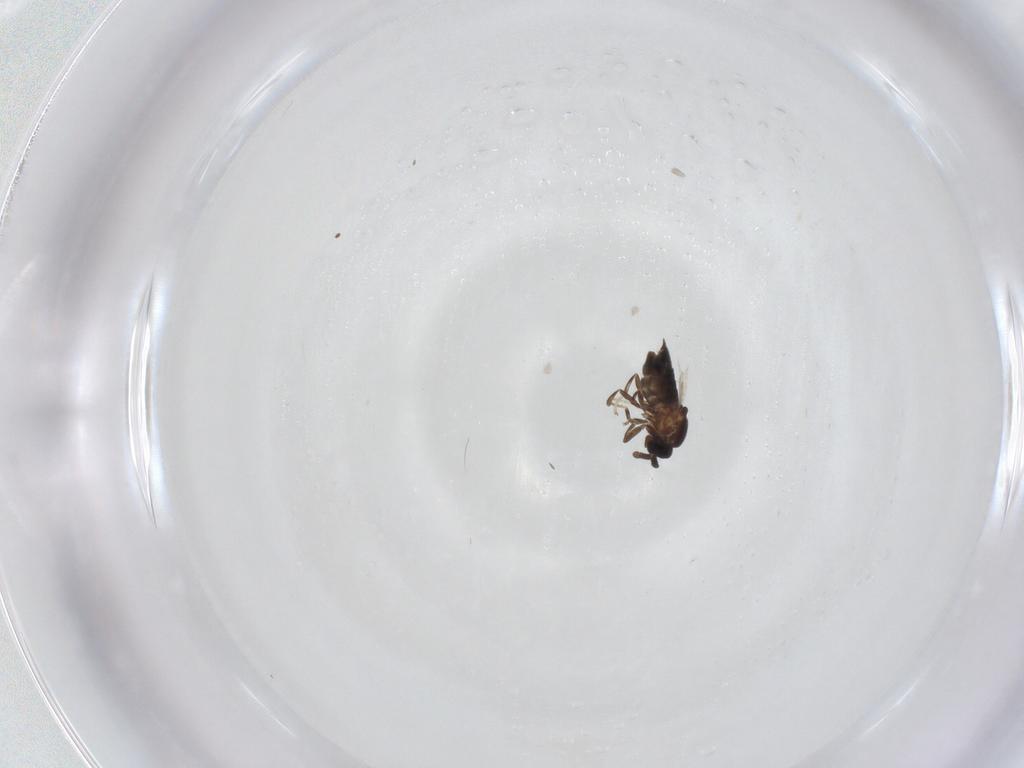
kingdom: Animalia
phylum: Arthropoda
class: Insecta
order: Diptera
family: Scatopsidae
